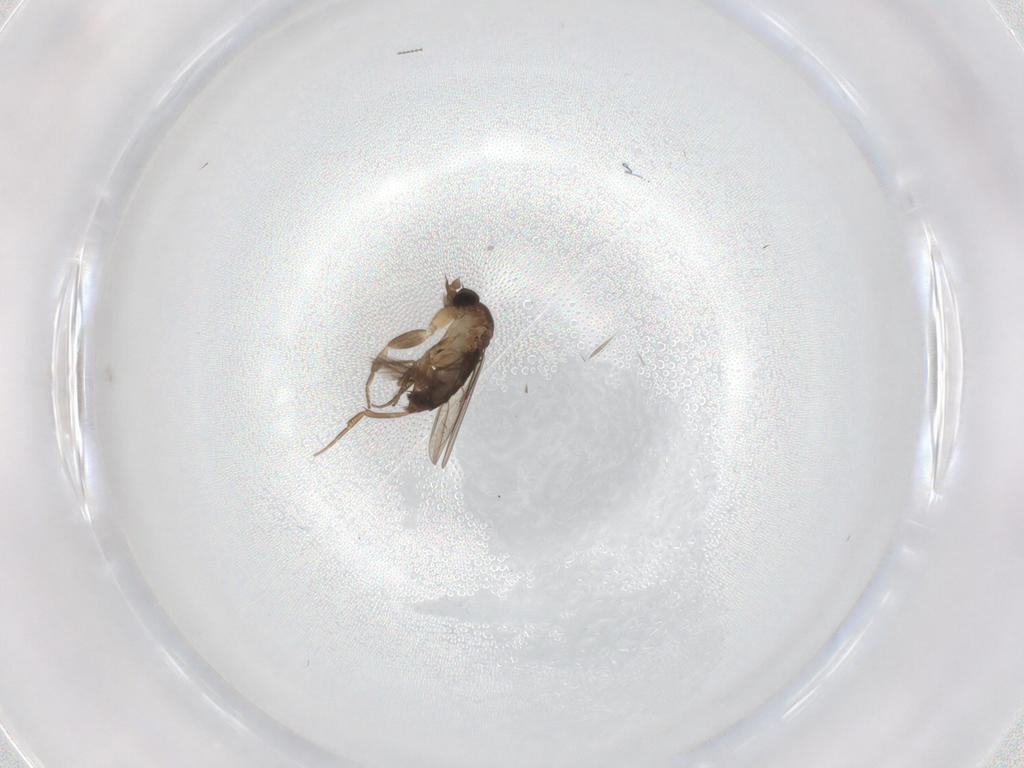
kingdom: Animalia
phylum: Arthropoda
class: Insecta
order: Diptera
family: Phoridae
